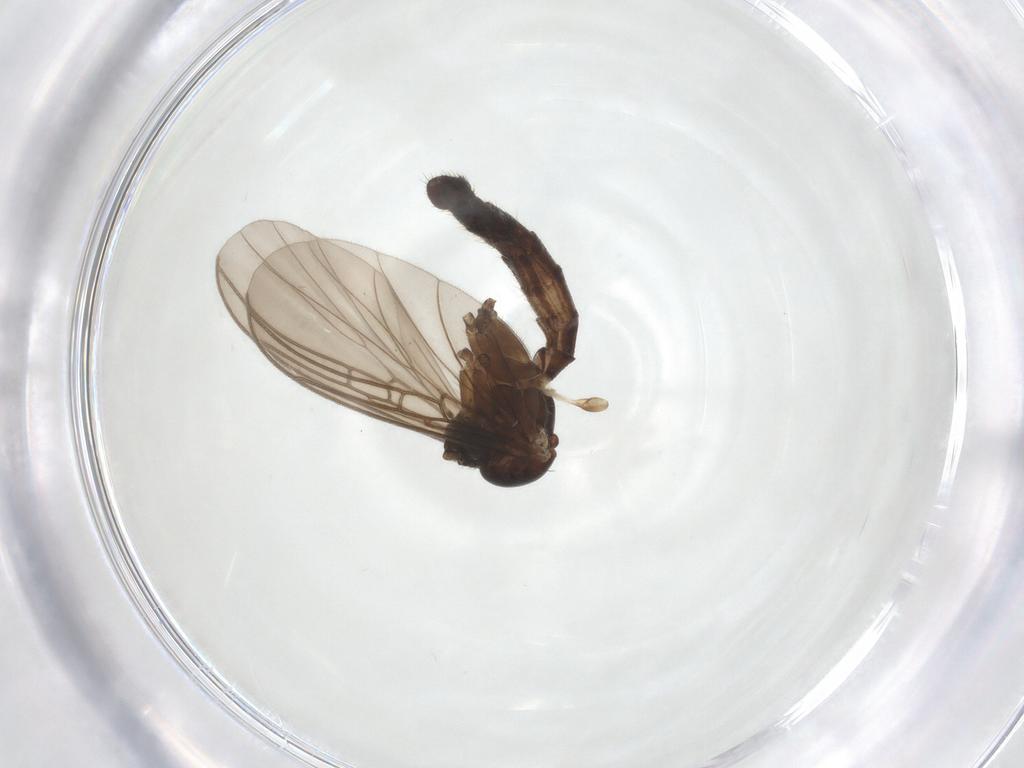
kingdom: Animalia
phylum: Arthropoda
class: Insecta
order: Diptera
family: Mycetophilidae
